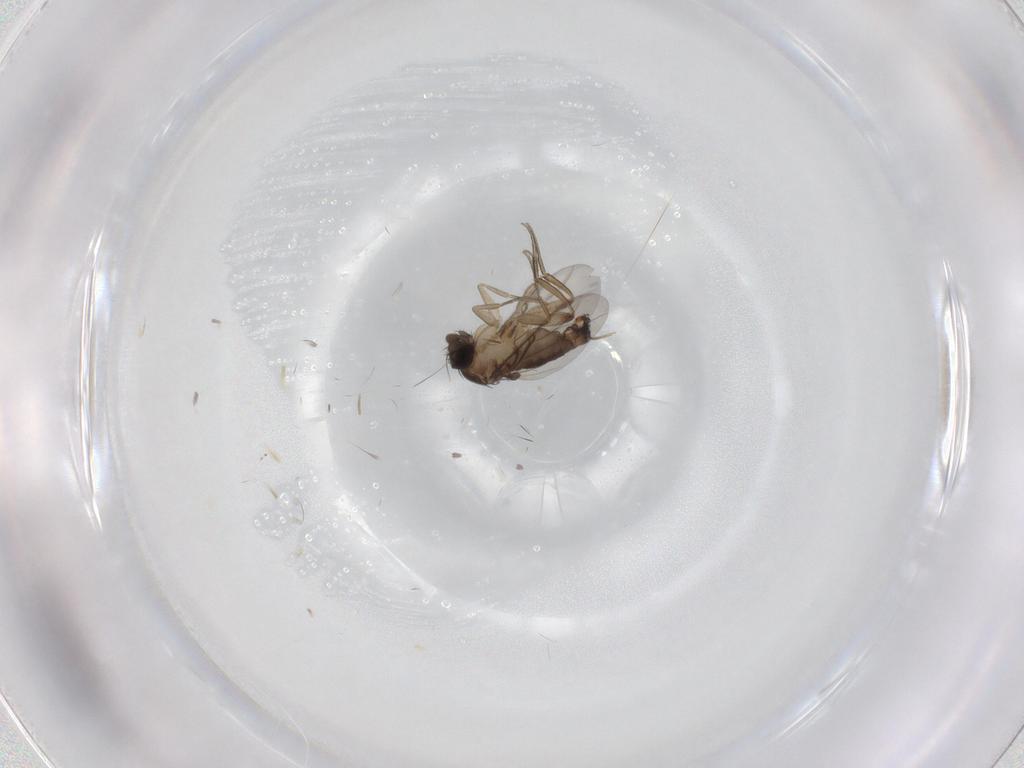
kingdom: Animalia
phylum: Arthropoda
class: Insecta
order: Diptera
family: Phoridae
